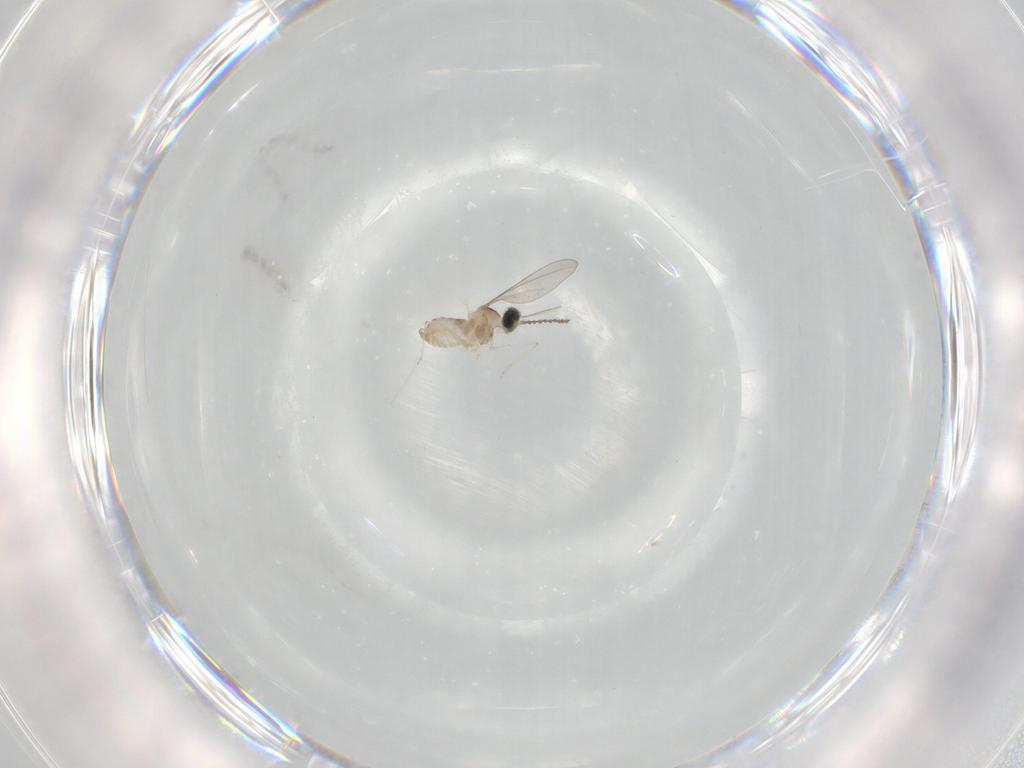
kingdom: Animalia
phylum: Arthropoda
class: Insecta
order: Diptera
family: Cecidomyiidae
